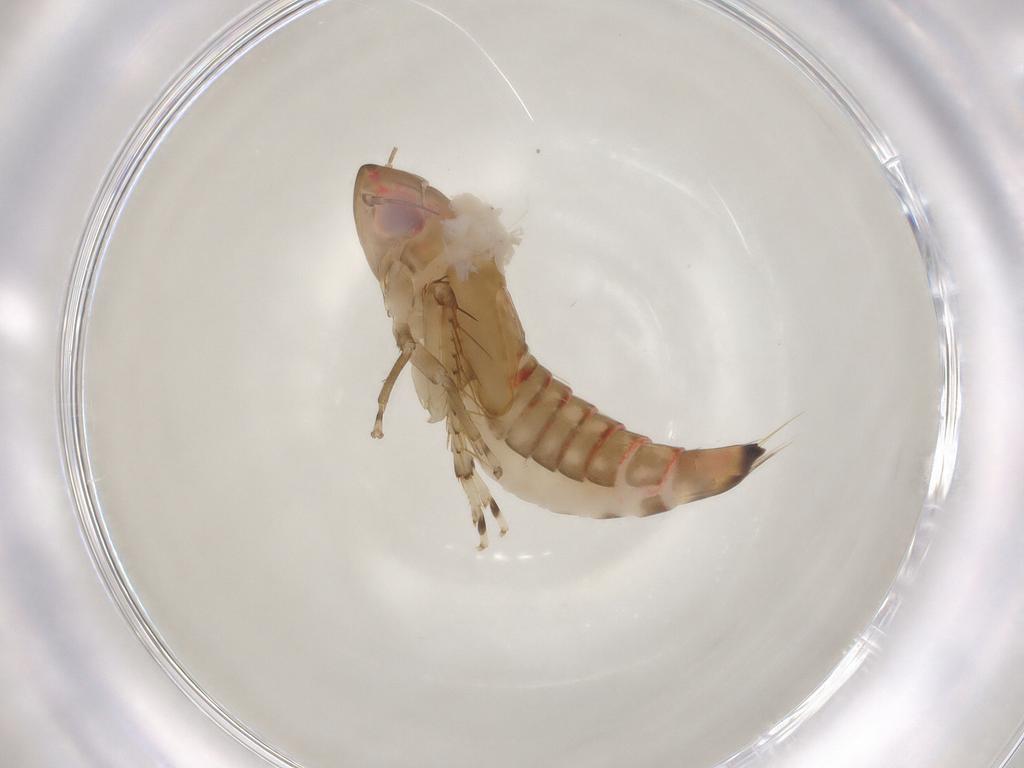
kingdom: Animalia
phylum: Arthropoda
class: Insecta
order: Hemiptera
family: Cicadellidae
